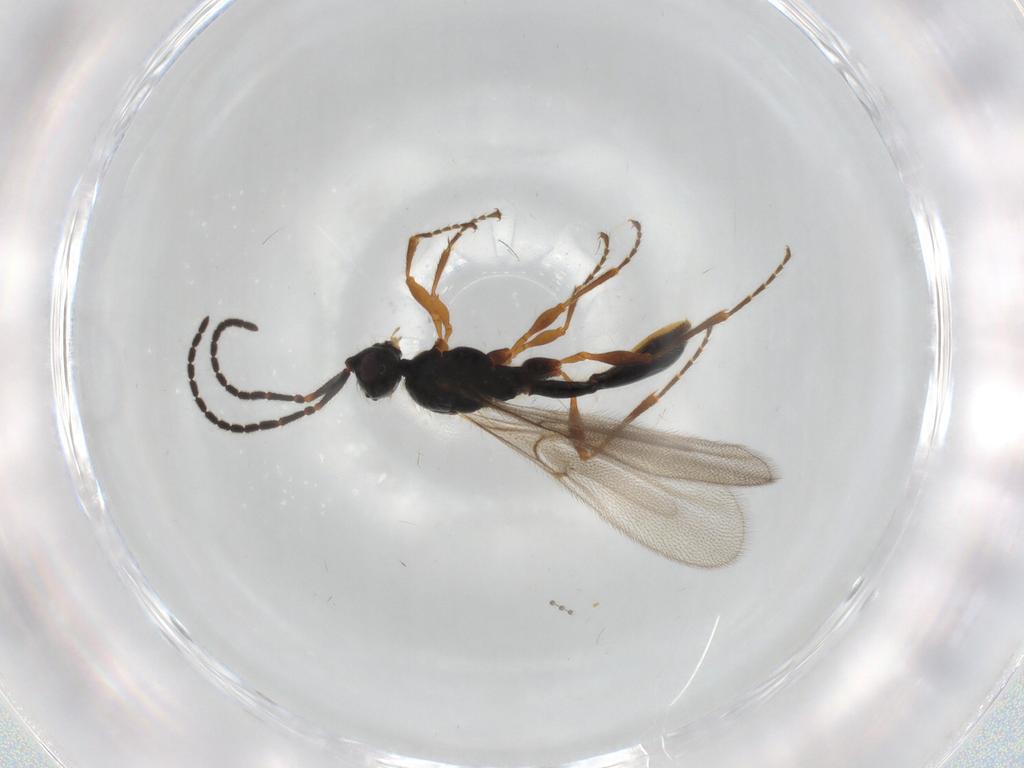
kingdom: Animalia
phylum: Arthropoda
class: Insecta
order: Hymenoptera
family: Diapriidae
